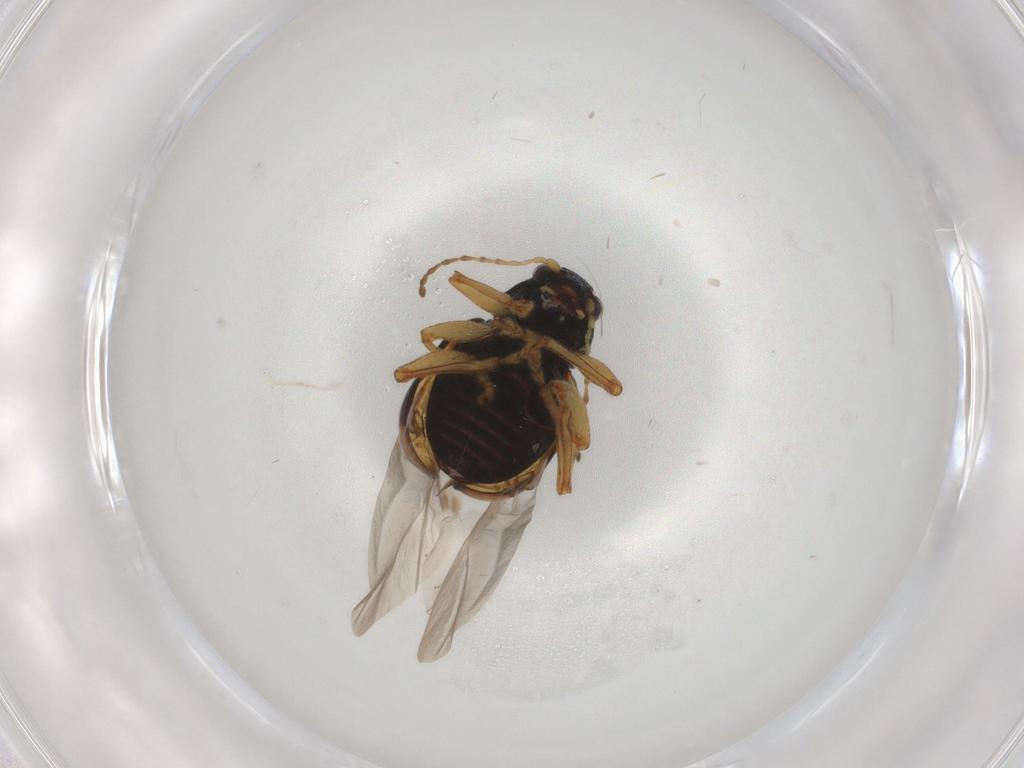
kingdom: Animalia
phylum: Arthropoda
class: Insecta
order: Coleoptera
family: Chrysomelidae
